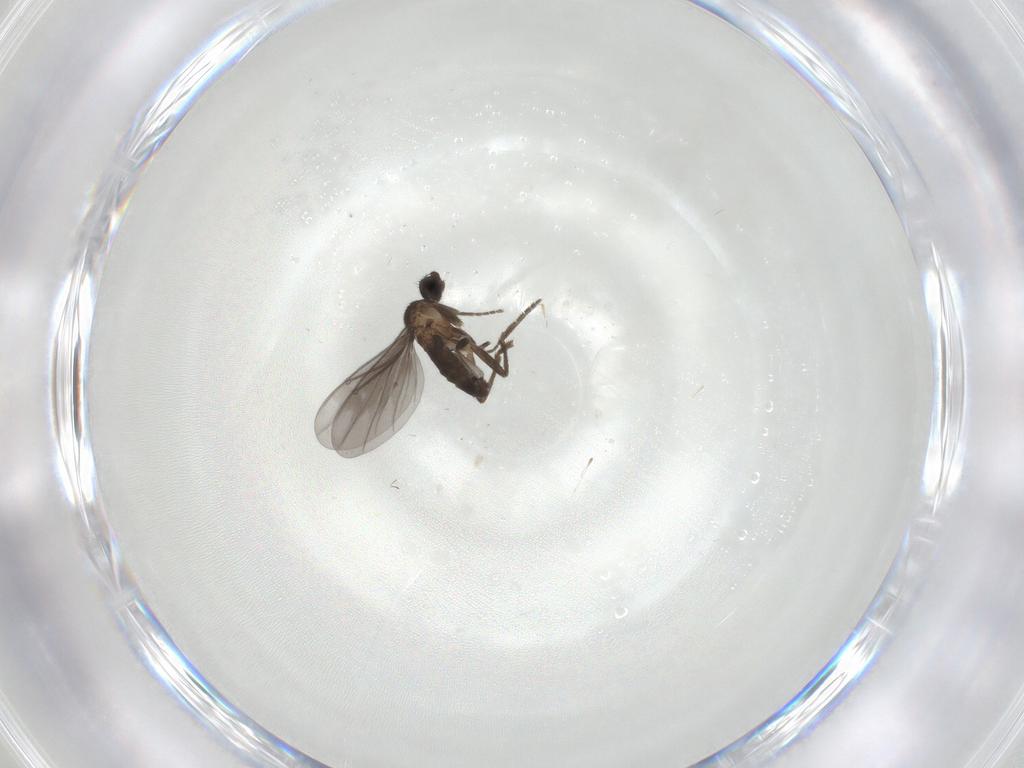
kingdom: Animalia
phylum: Arthropoda
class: Insecta
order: Diptera
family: Phoridae
